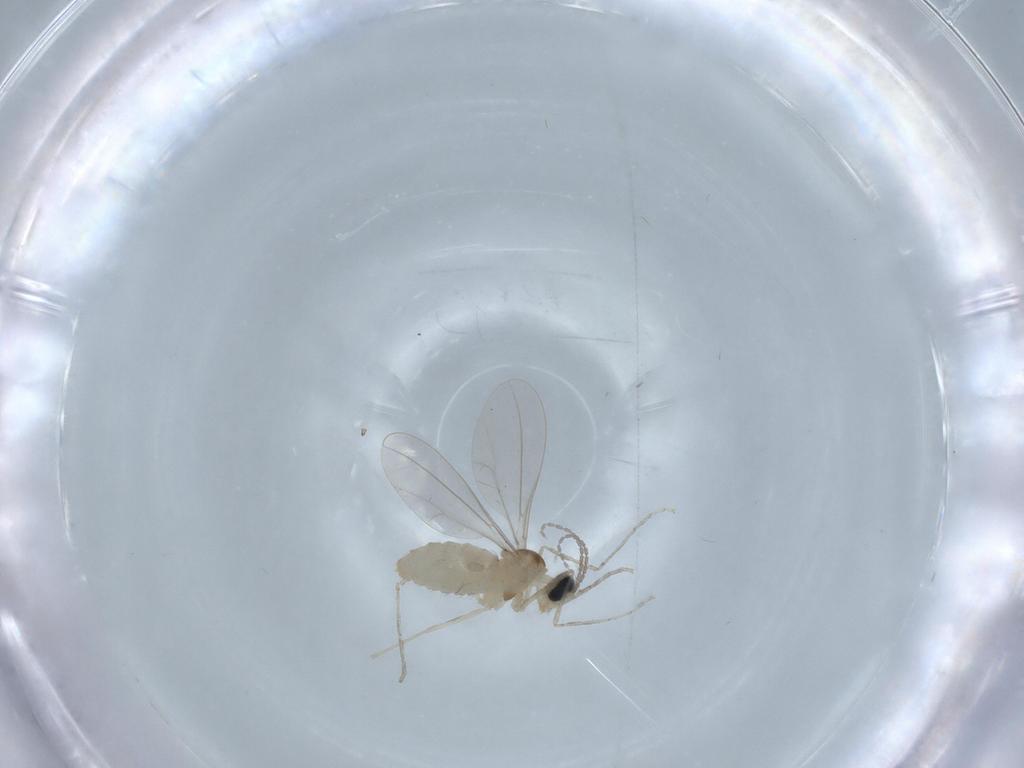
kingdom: Animalia
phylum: Arthropoda
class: Insecta
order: Diptera
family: Chironomidae
